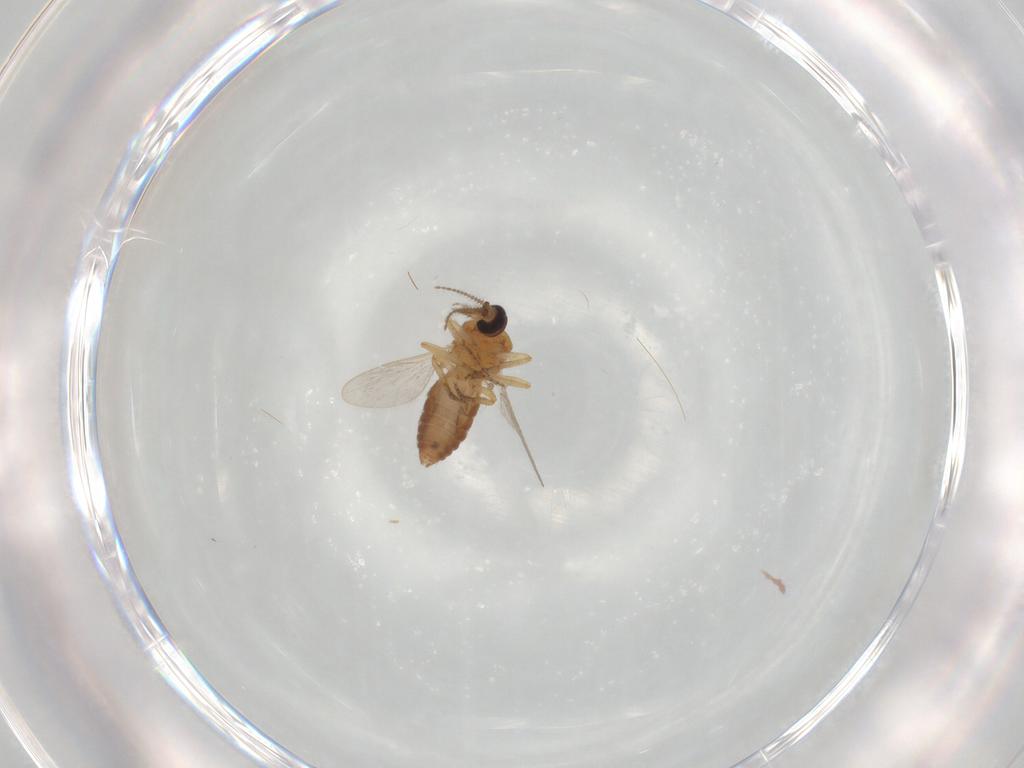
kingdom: Animalia
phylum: Arthropoda
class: Insecta
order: Diptera
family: Ceratopogonidae
